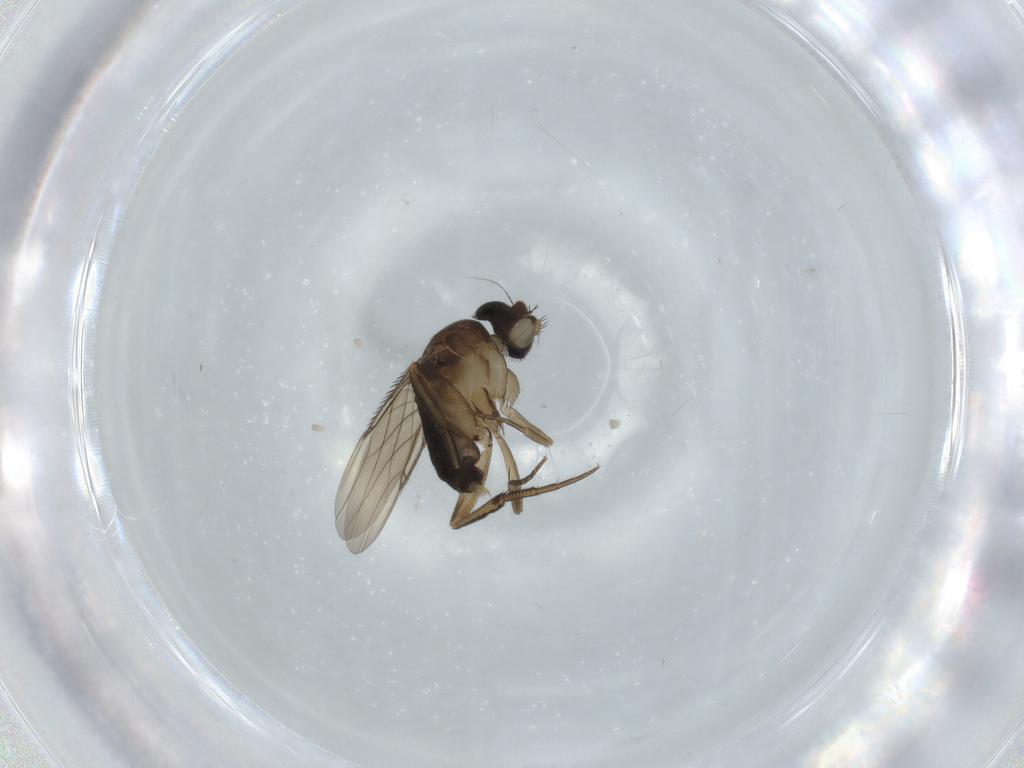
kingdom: Animalia
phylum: Arthropoda
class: Insecta
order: Diptera
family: Phoridae
